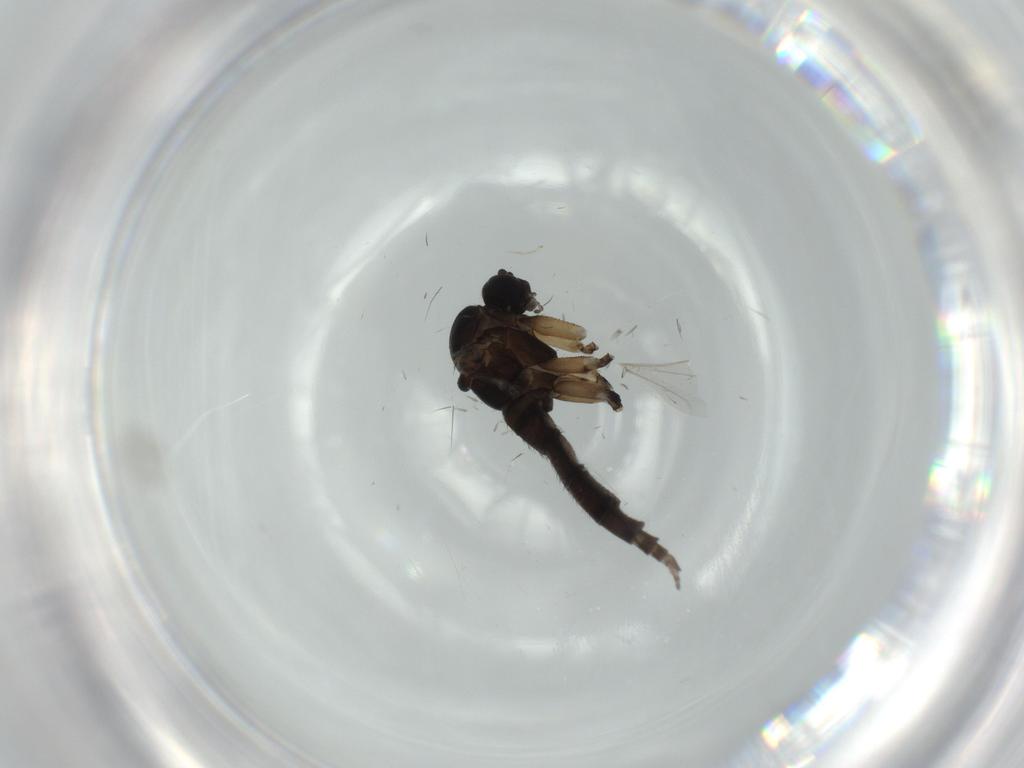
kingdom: Animalia
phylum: Arthropoda
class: Insecta
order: Diptera
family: Sciaridae
